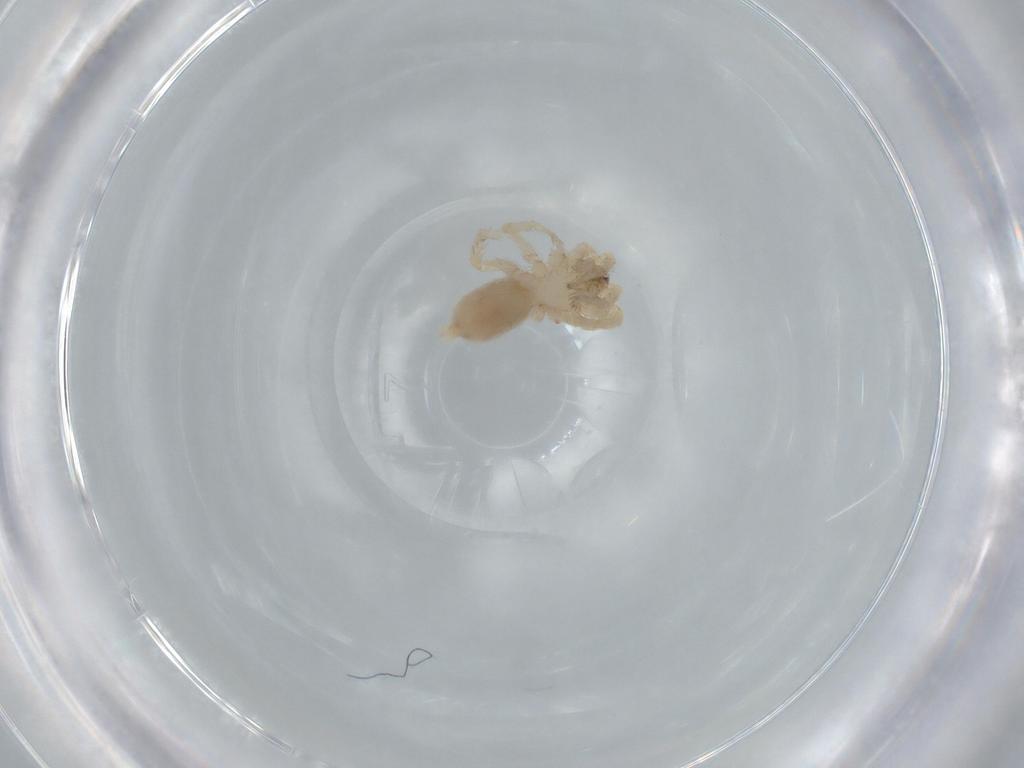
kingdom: Animalia
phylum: Arthropoda
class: Arachnida
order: Araneae
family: Oonopidae
